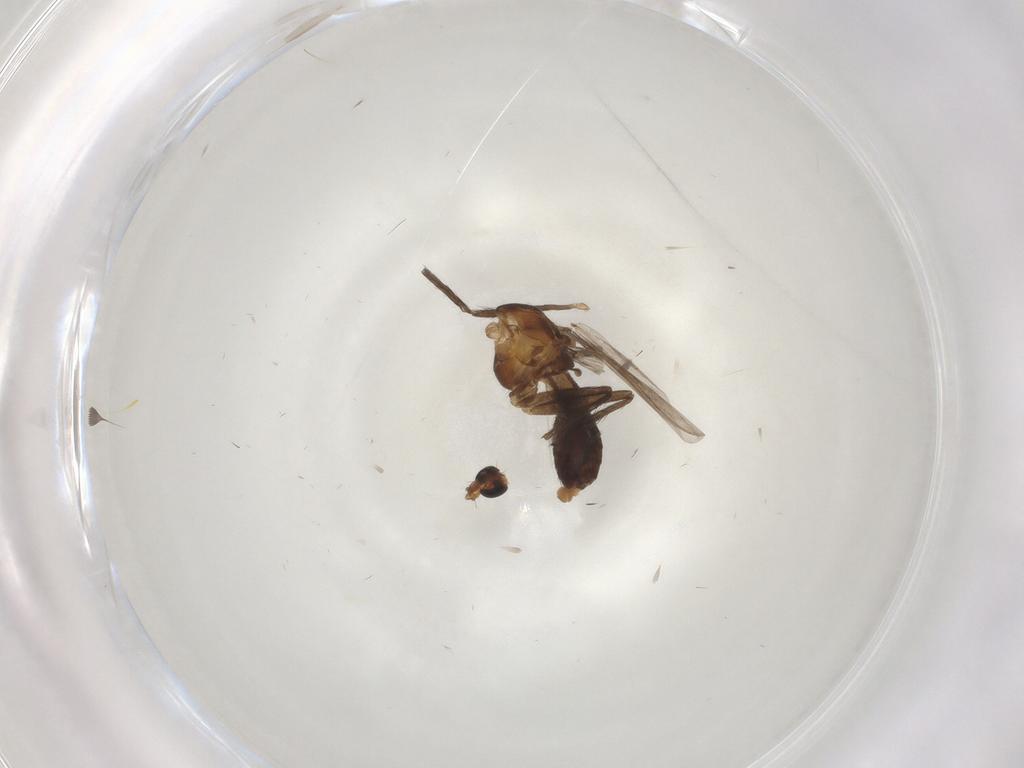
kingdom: Animalia
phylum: Arthropoda
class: Insecta
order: Diptera
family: Chironomidae
